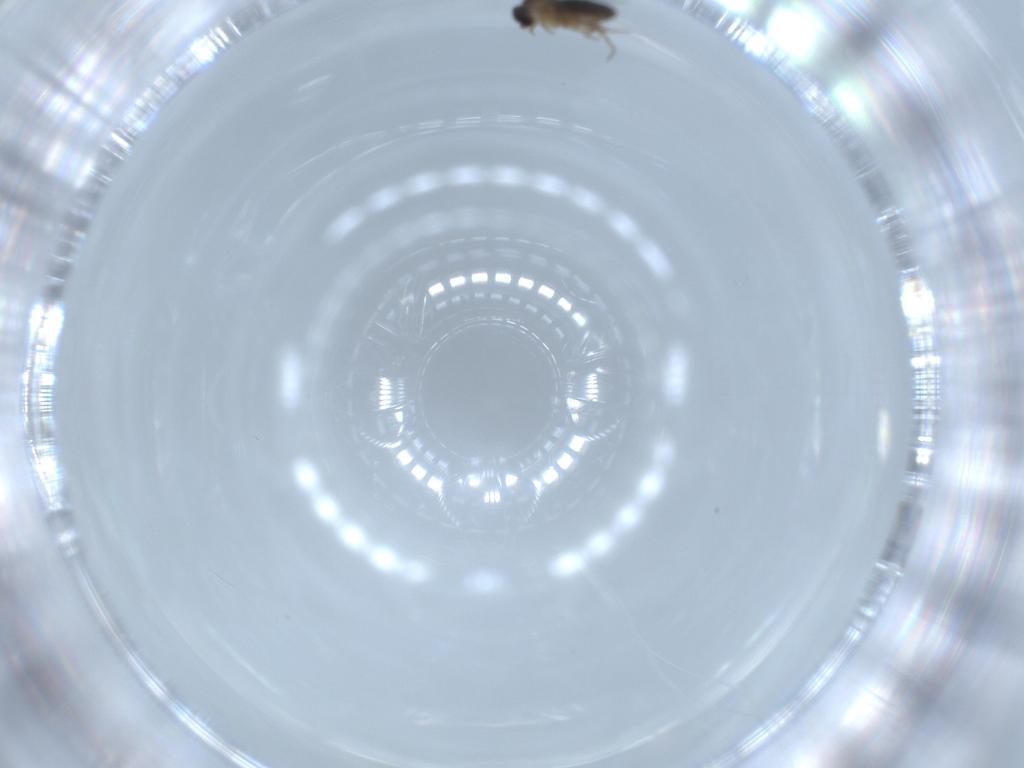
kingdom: Animalia
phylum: Arthropoda
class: Insecta
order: Diptera
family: Phoridae
